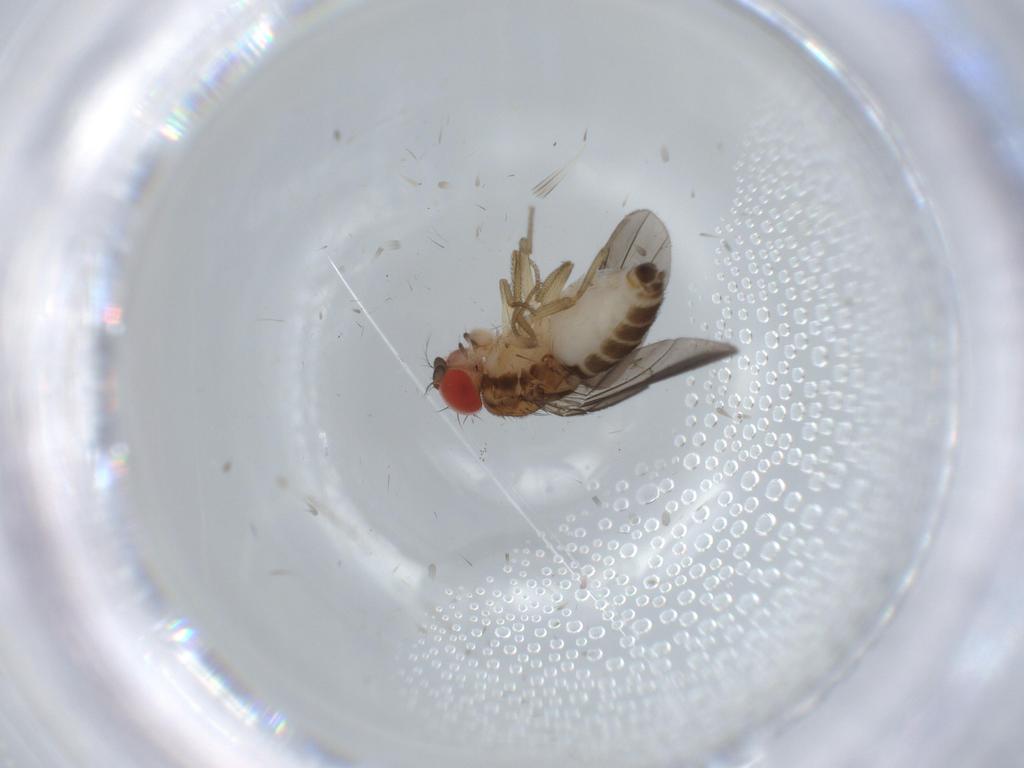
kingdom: Animalia
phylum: Arthropoda
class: Insecta
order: Diptera
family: Drosophilidae
